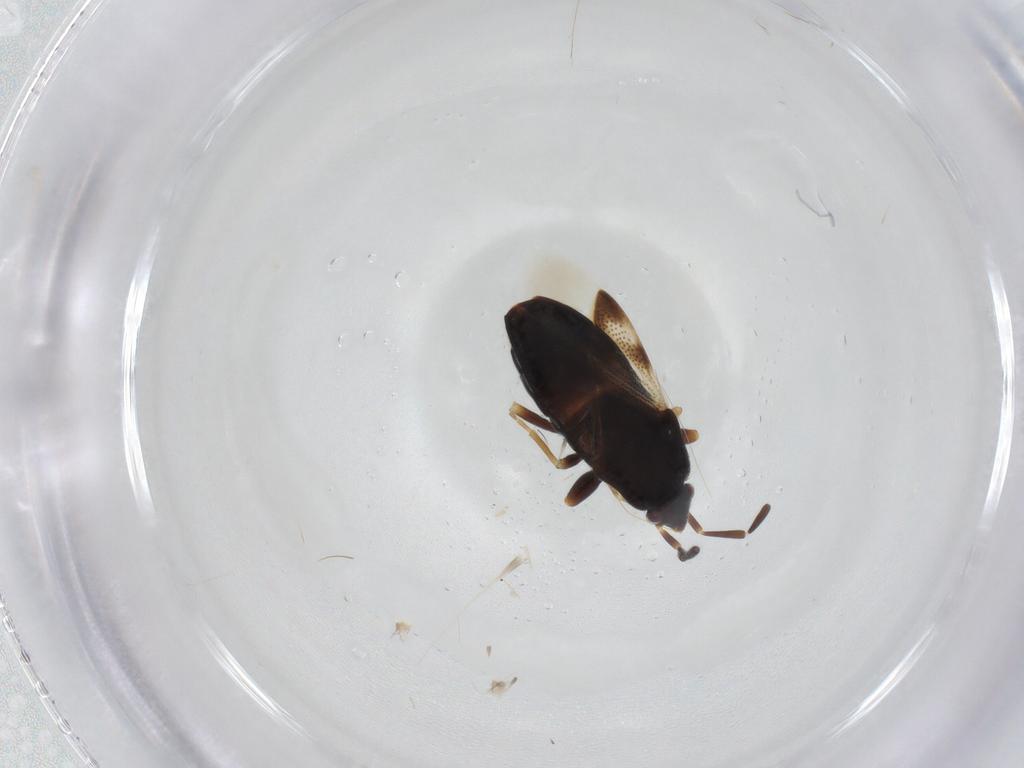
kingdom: Animalia
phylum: Arthropoda
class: Insecta
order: Hemiptera
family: Rhyparochromidae
